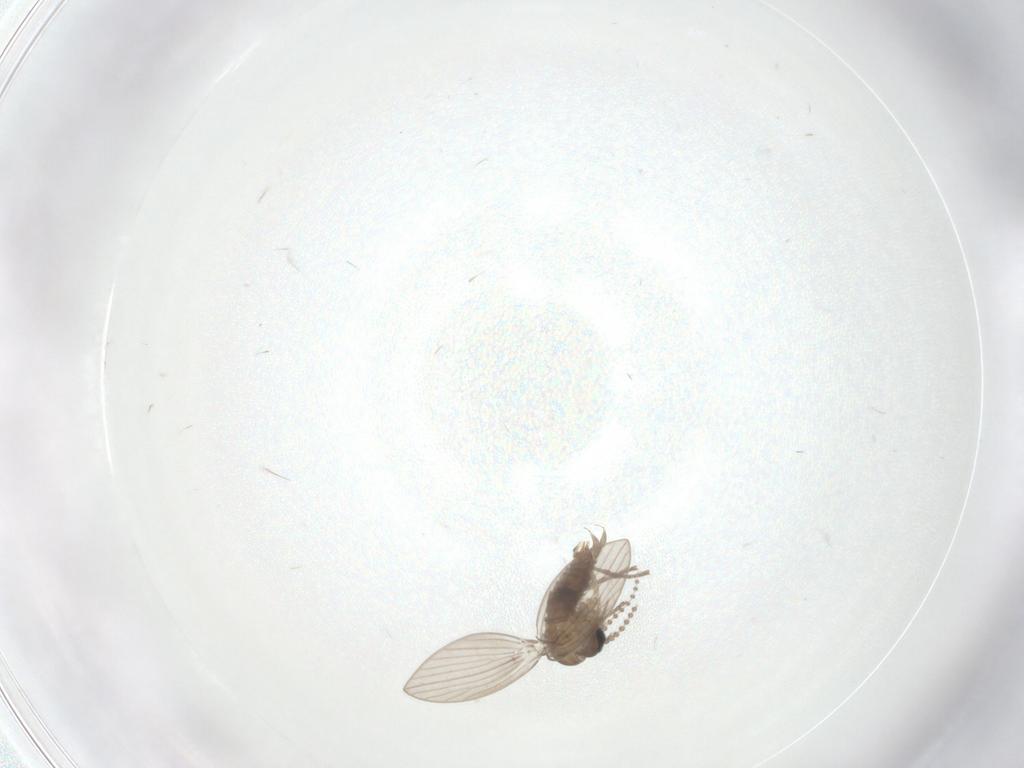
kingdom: Animalia
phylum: Arthropoda
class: Insecta
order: Diptera
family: Psychodidae
